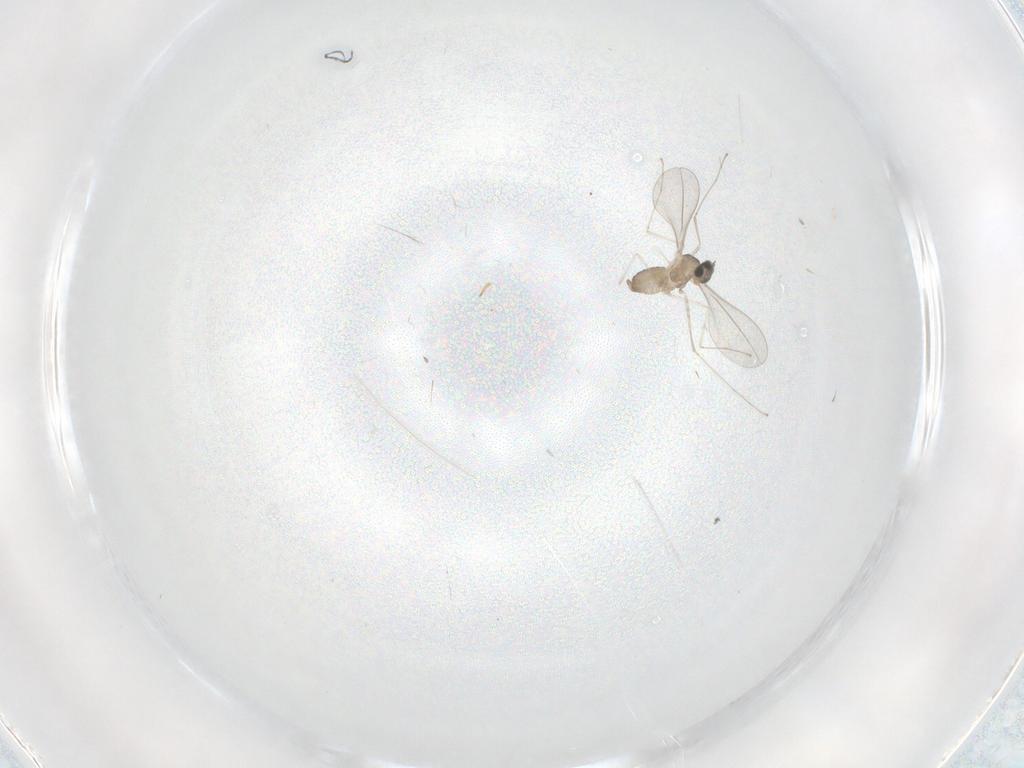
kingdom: Animalia
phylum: Arthropoda
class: Insecta
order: Diptera
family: Cecidomyiidae
